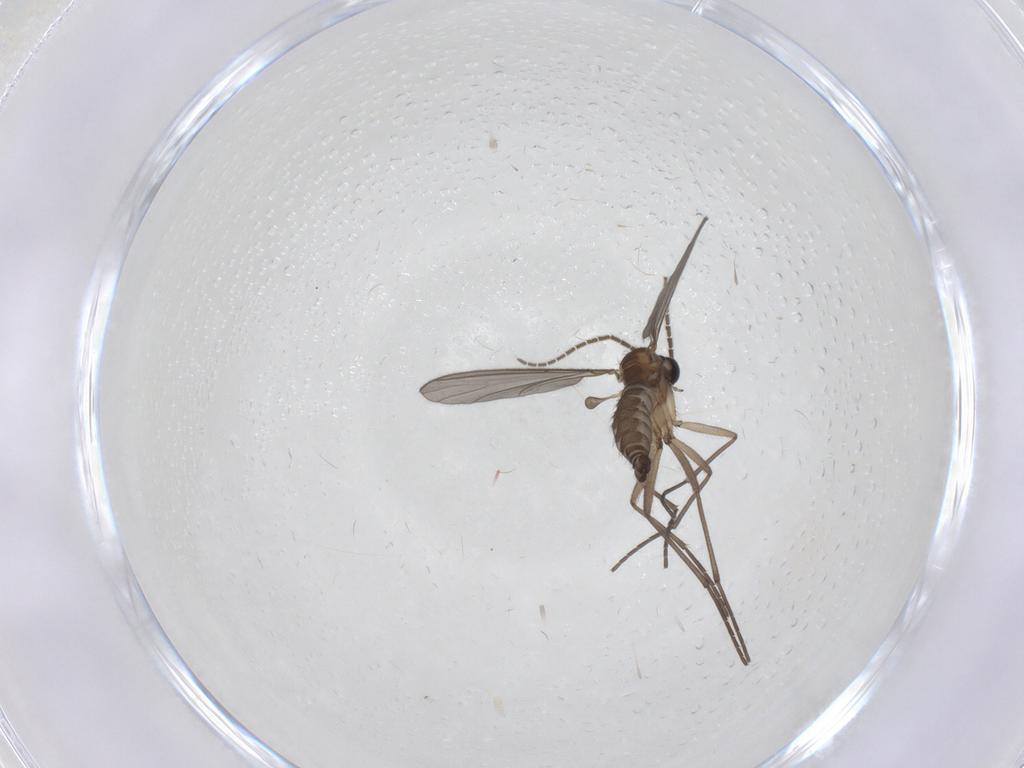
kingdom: Animalia
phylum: Arthropoda
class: Insecta
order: Diptera
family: Sciaridae
